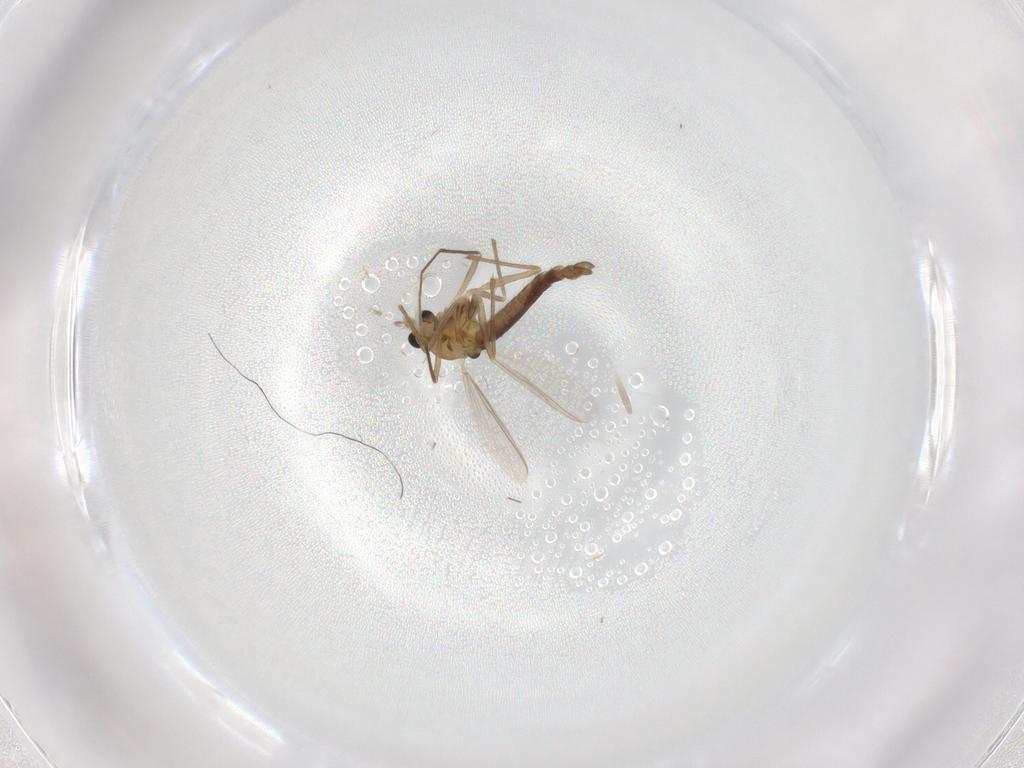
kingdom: Animalia
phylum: Arthropoda
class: Insecta
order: Diptera
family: Chironomidae
